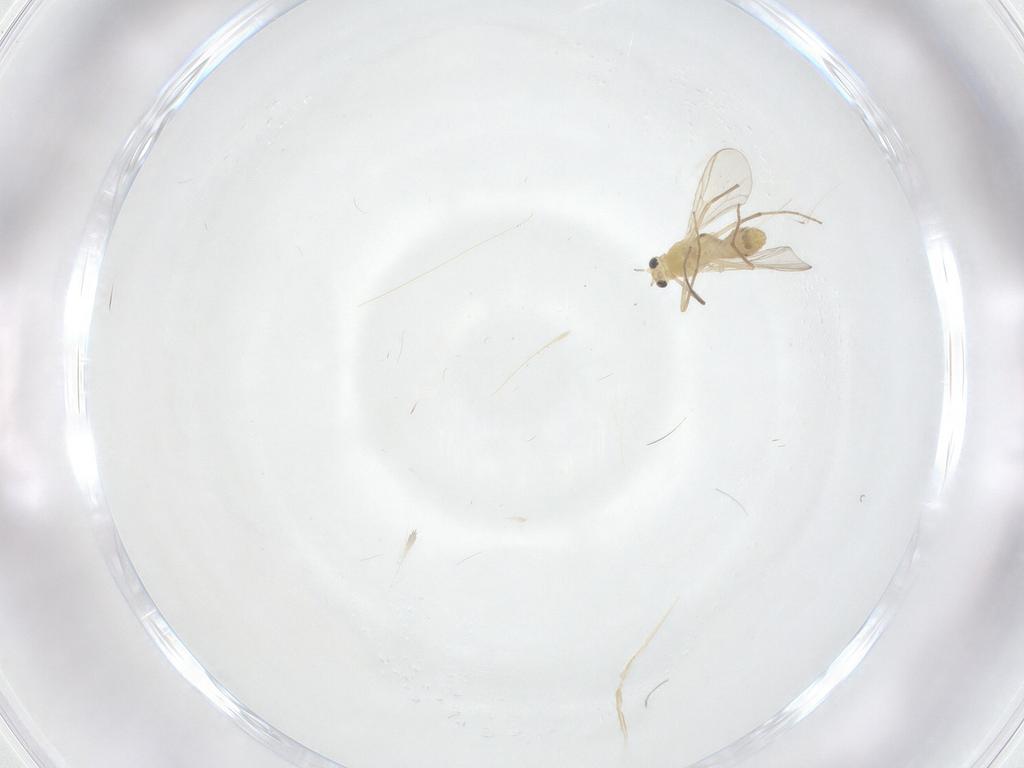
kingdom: Animalia
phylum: Arthropoda
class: Insecta
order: Diptera
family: Chironomidae
